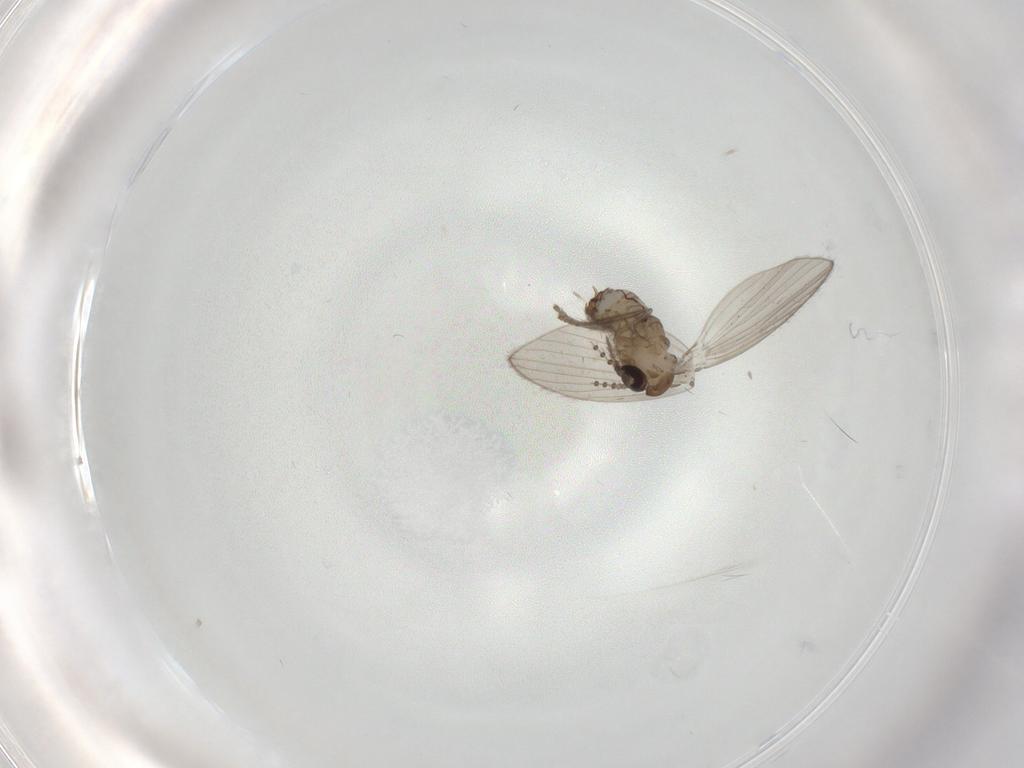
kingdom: Animalia
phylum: Arthropoda
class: Insecta
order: Diptera
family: Psychodidae
